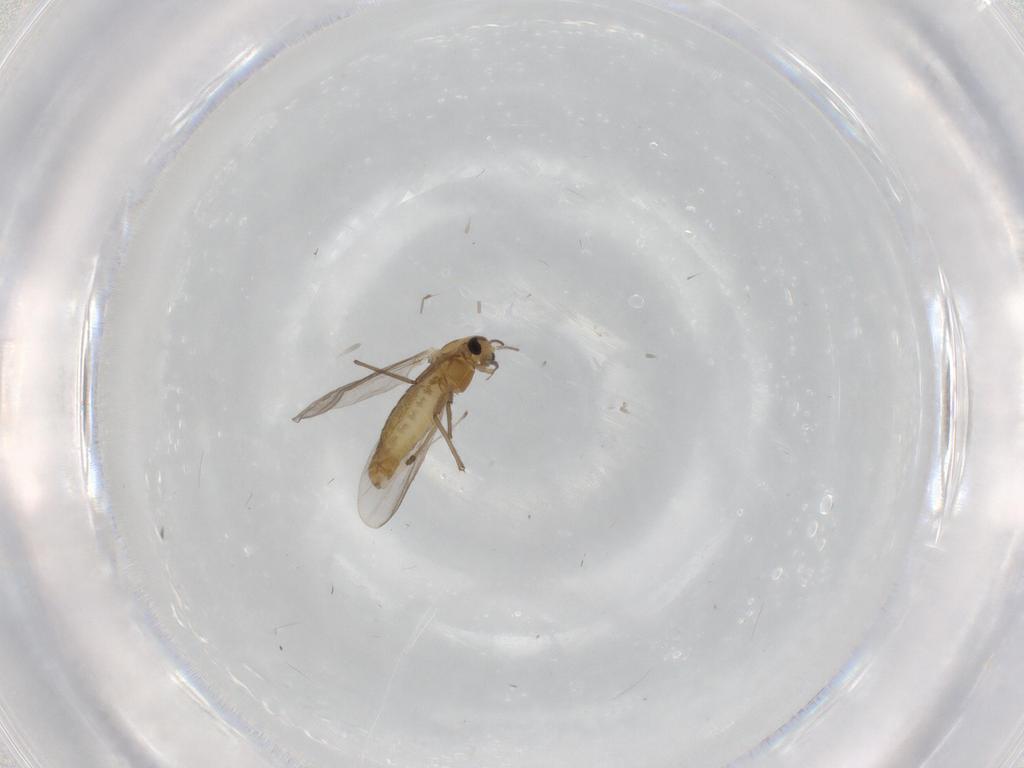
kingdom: Animalia
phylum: Arthropoda
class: Insecta
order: Diptera
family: Chironomidae
